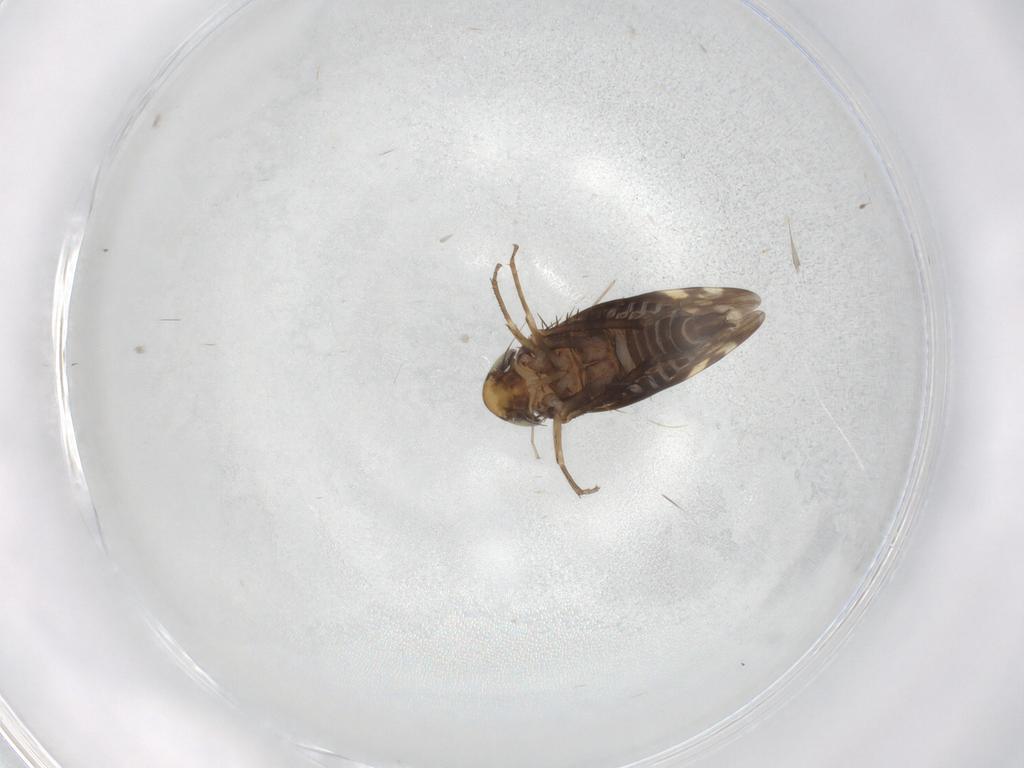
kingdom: Animalia
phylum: Arthropoda
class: Insecta
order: Hemiptera
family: Cicadellidae
